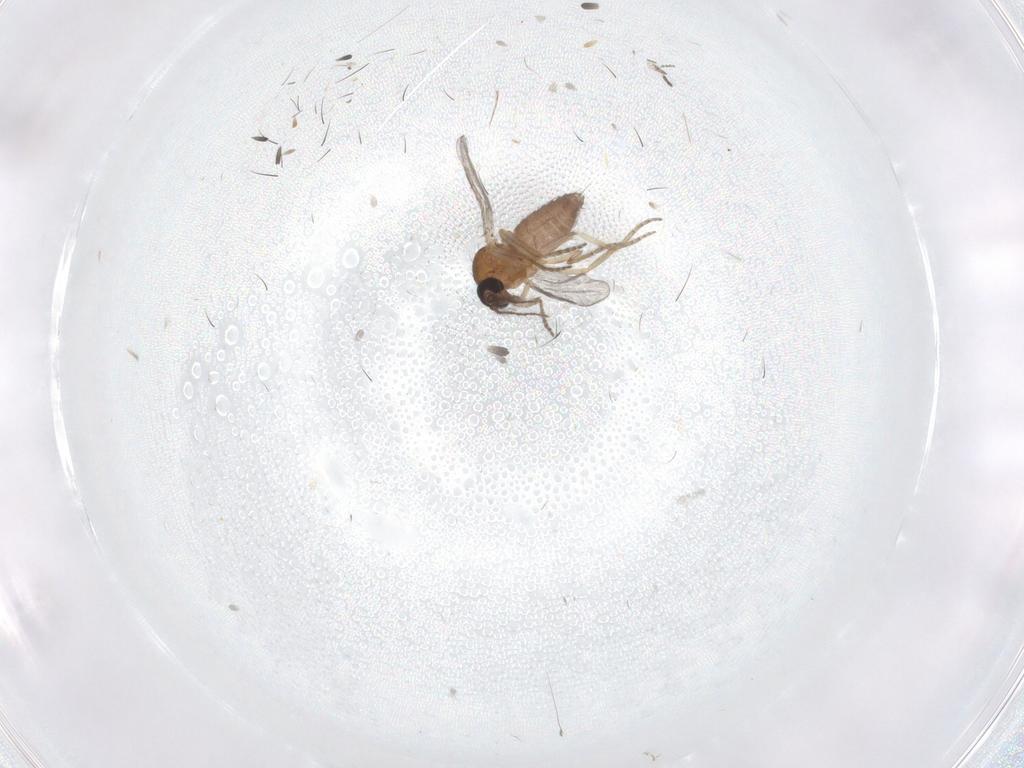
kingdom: Animalia
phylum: Arthropoda
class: Insecta
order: Diptera
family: Ceratopogonidae
